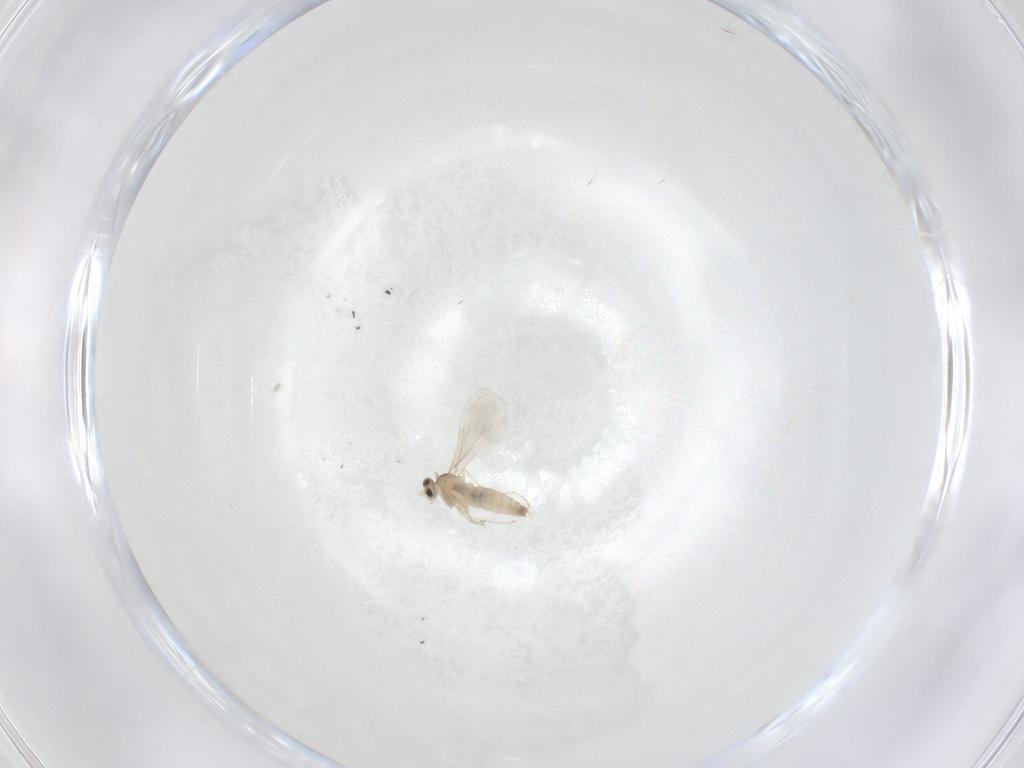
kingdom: Animalia
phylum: Arthropoda
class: Insecta
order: Diptera
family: Cecidomyiidae
